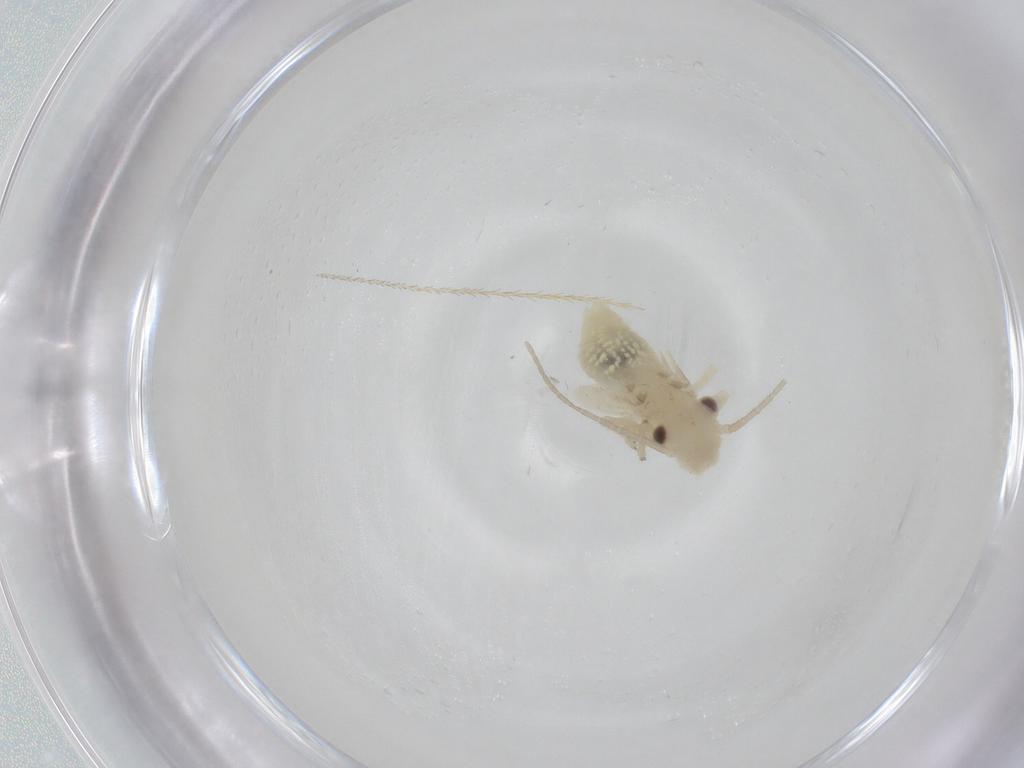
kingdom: Animalia
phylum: Arthropoda
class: Insecta
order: Psocodea
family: Caeciliusidae
